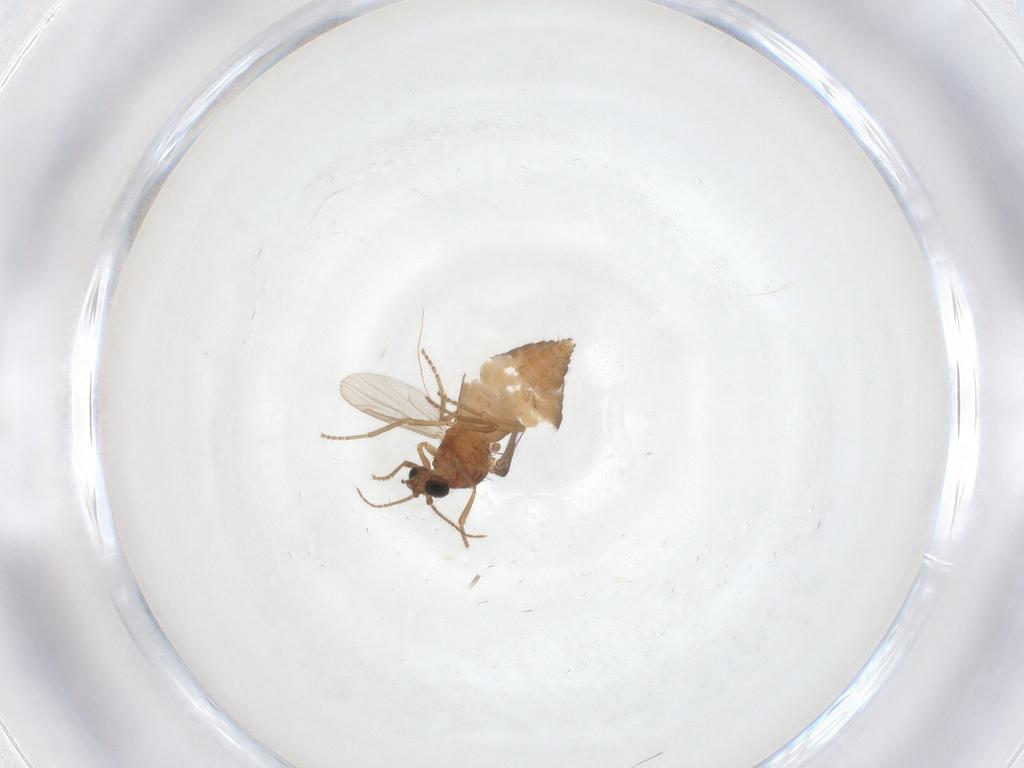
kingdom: Animalia
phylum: Arthropoda
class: Insecta
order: Diptera
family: Ceratopogonidae
